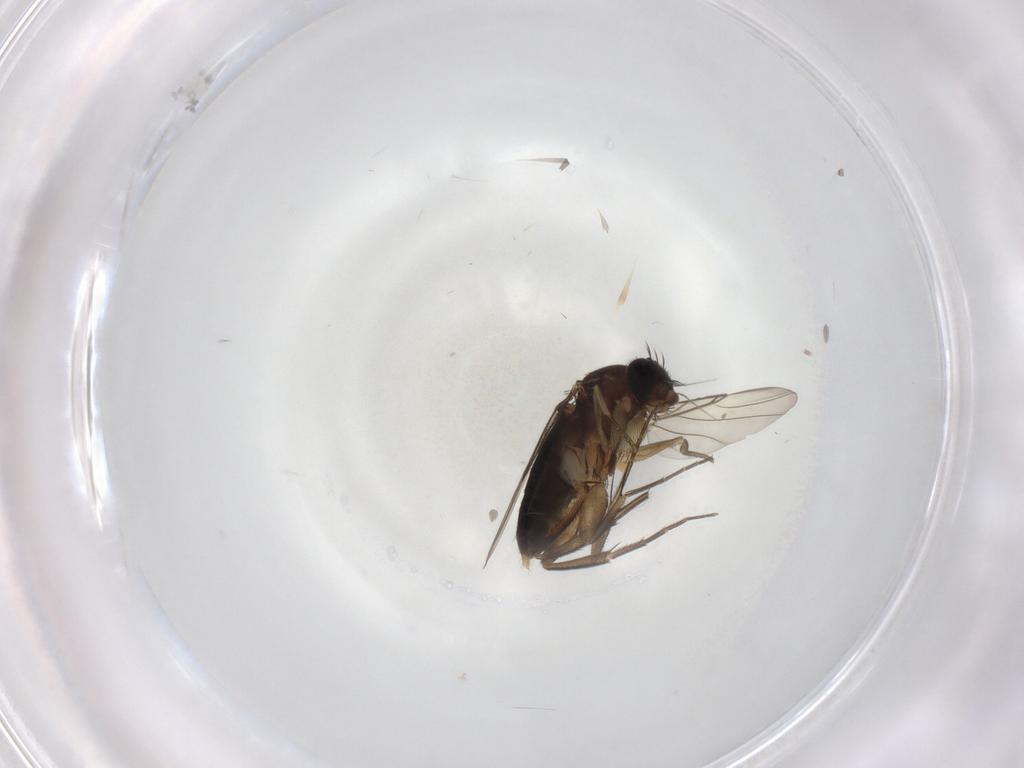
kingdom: Animalia
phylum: Arthropoda
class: Insecta
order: Diptera
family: Phoridae
